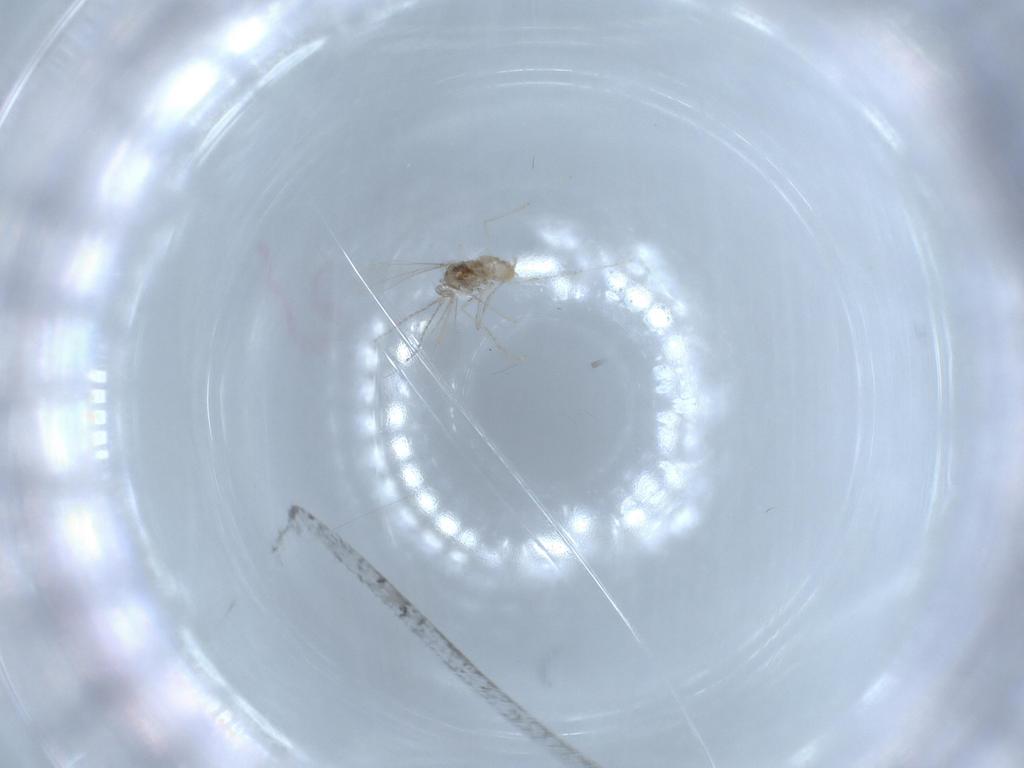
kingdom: Animalia
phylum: Arthropoda
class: Insecta
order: Diptera
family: Cecidomyiidae
